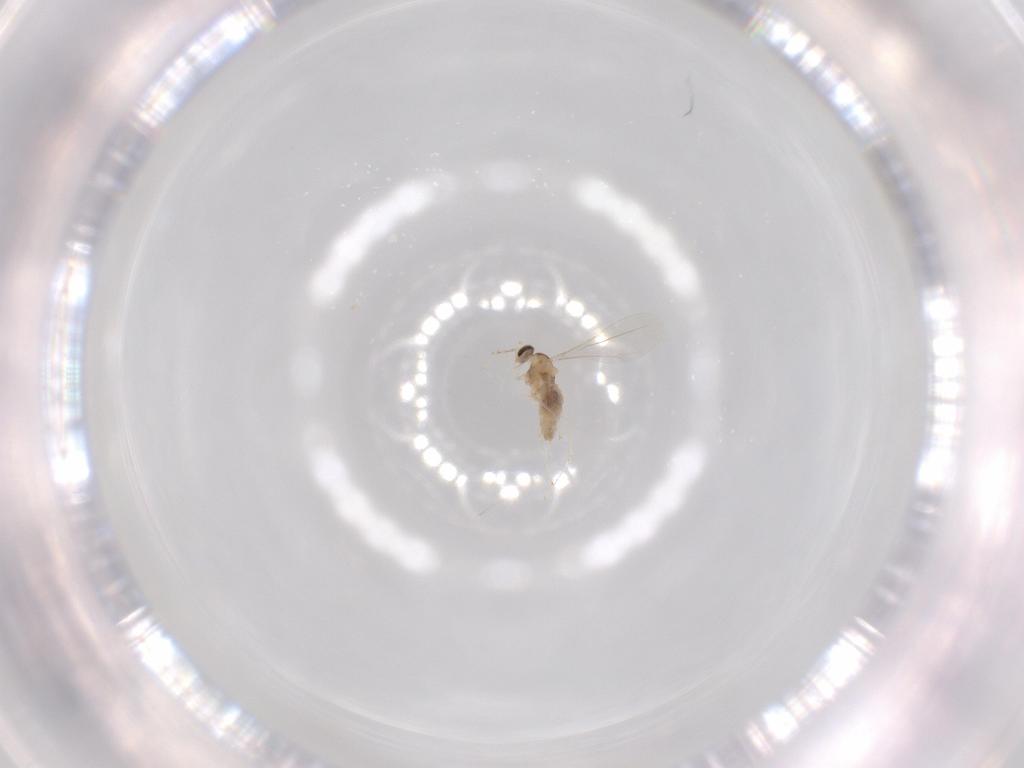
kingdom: Animalia
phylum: Arthropoda
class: Insecta
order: Diptera
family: Cecidomyiidae
